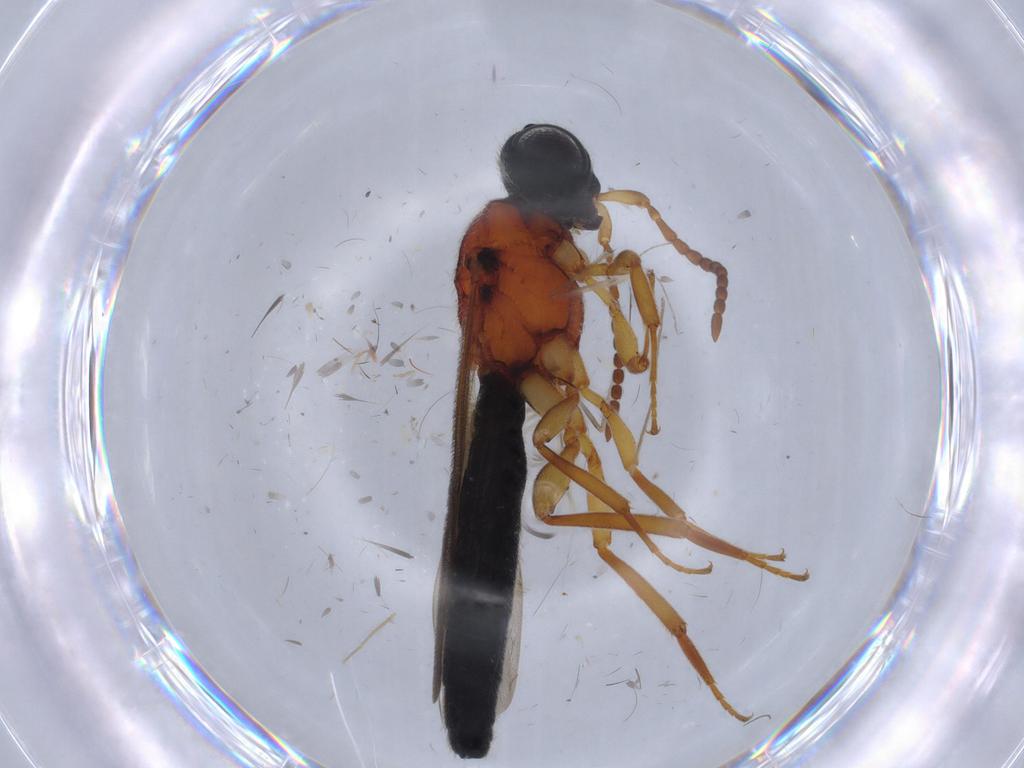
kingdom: Animalia
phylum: Arthropoda
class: Insecta
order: Hymenoptera
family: Scelionidae
